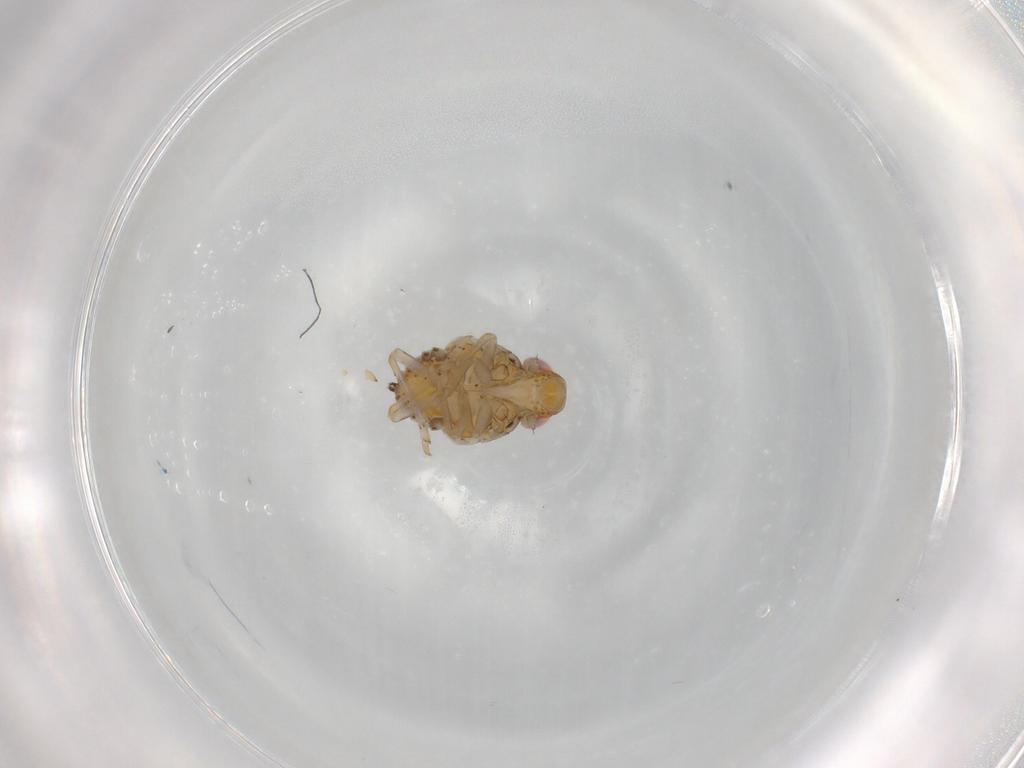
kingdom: Animalia
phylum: Arthropoda
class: Insecta
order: Hemiptera
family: Issidae
